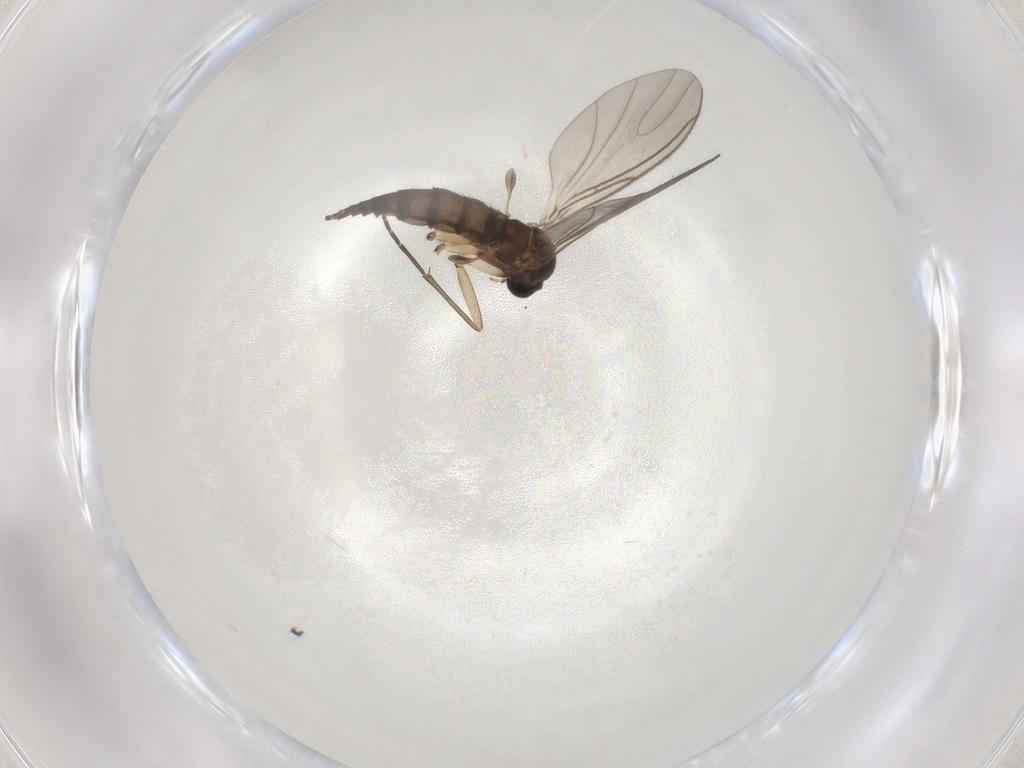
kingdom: Animalia
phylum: Arthropoda
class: Insecta
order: Diptera
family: Sciaridae
